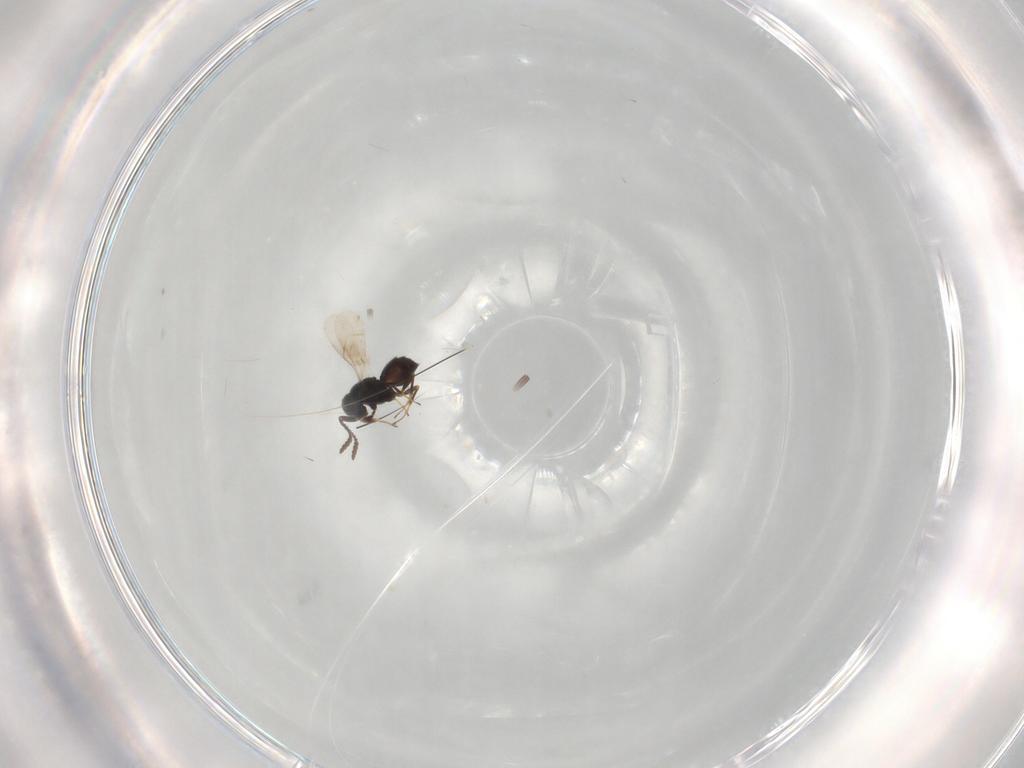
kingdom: Animalia
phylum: Arthropoda
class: Insecta
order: Hymenoptera
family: Scelionidae
